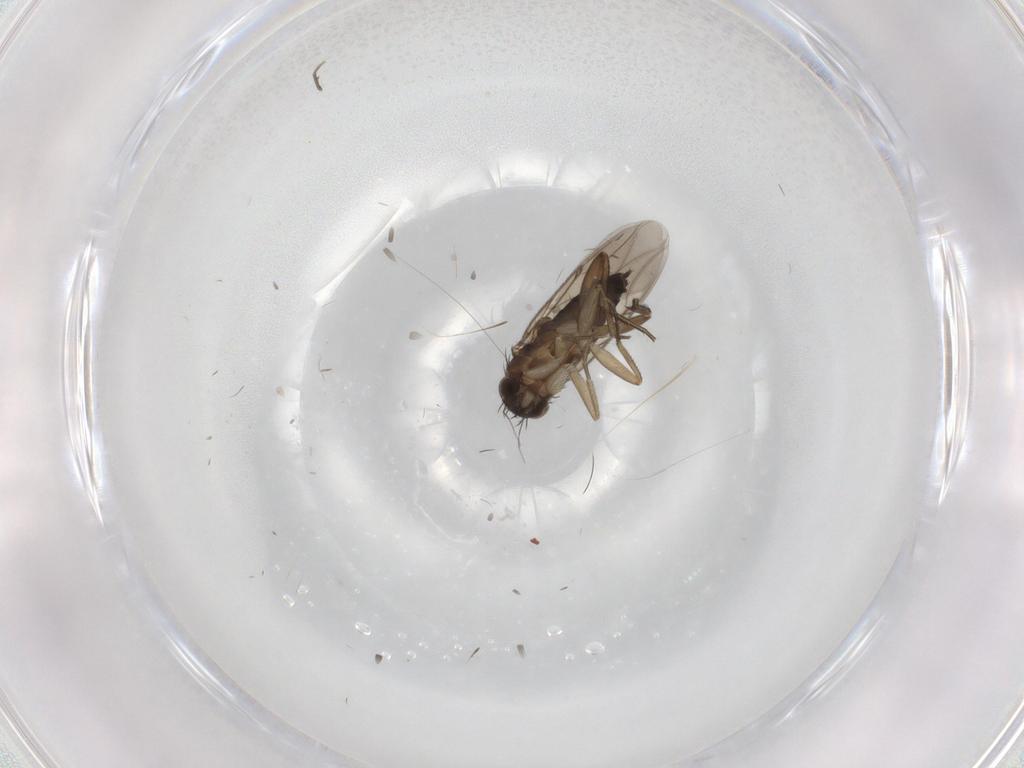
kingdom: Animalia
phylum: Arthropoda
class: Insecta
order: Diptera
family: Phoridae
